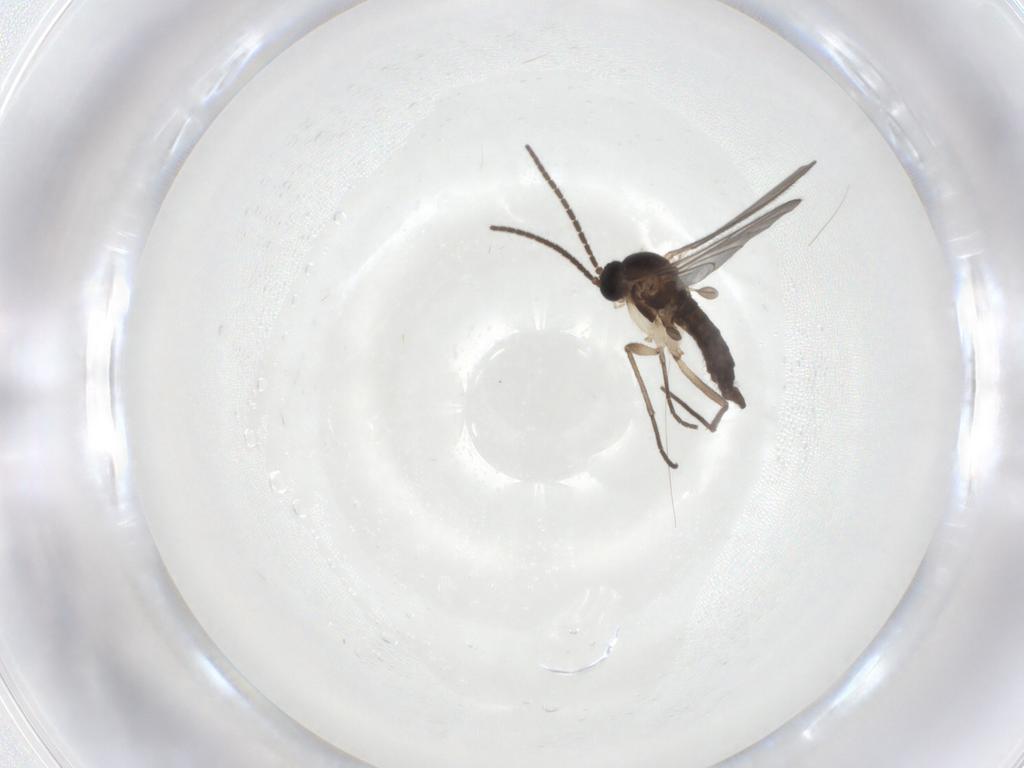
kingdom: Animalia
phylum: Arthropoda
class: Insecta
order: Diptera
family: Sciaridae
